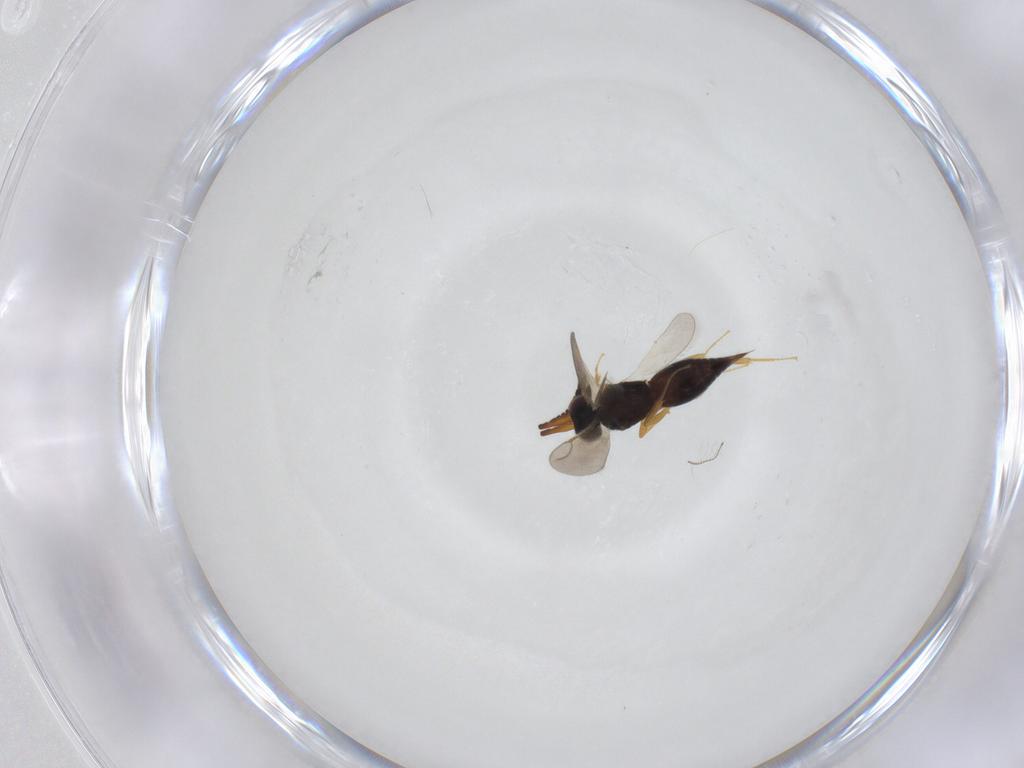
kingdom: Animalia
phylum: Arthropoda
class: Insecta
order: Diptera
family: Chironomidae
